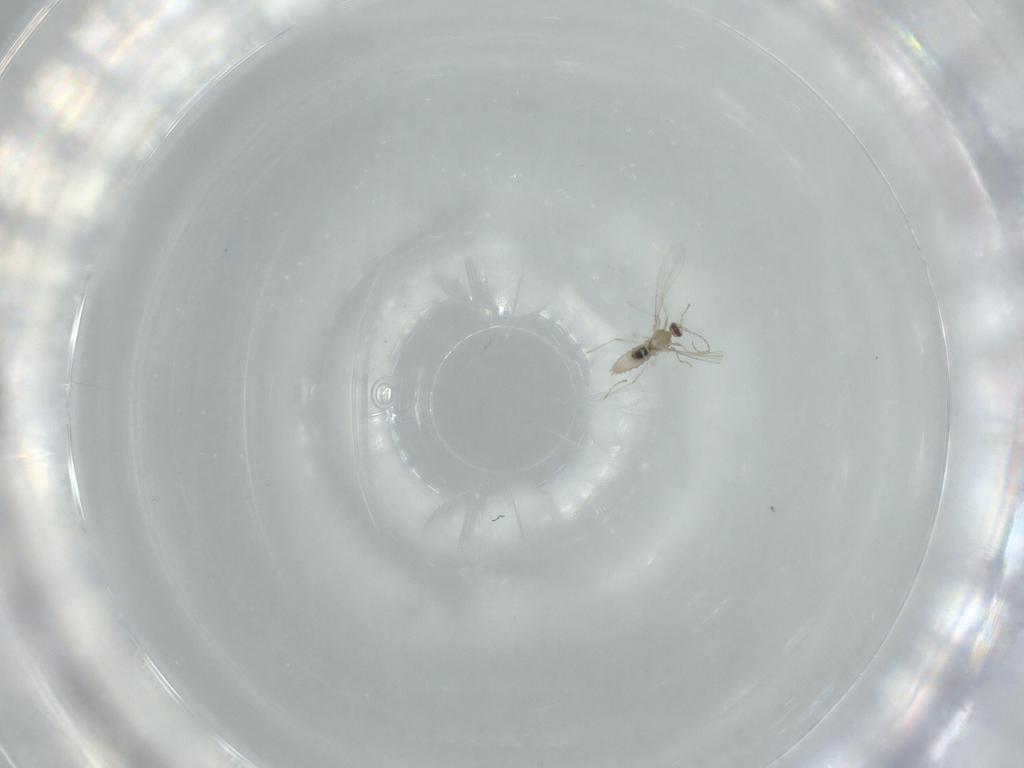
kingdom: Animalia
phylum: Arthropoda
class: Insecta
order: Diptera
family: Cecidomyiidae
